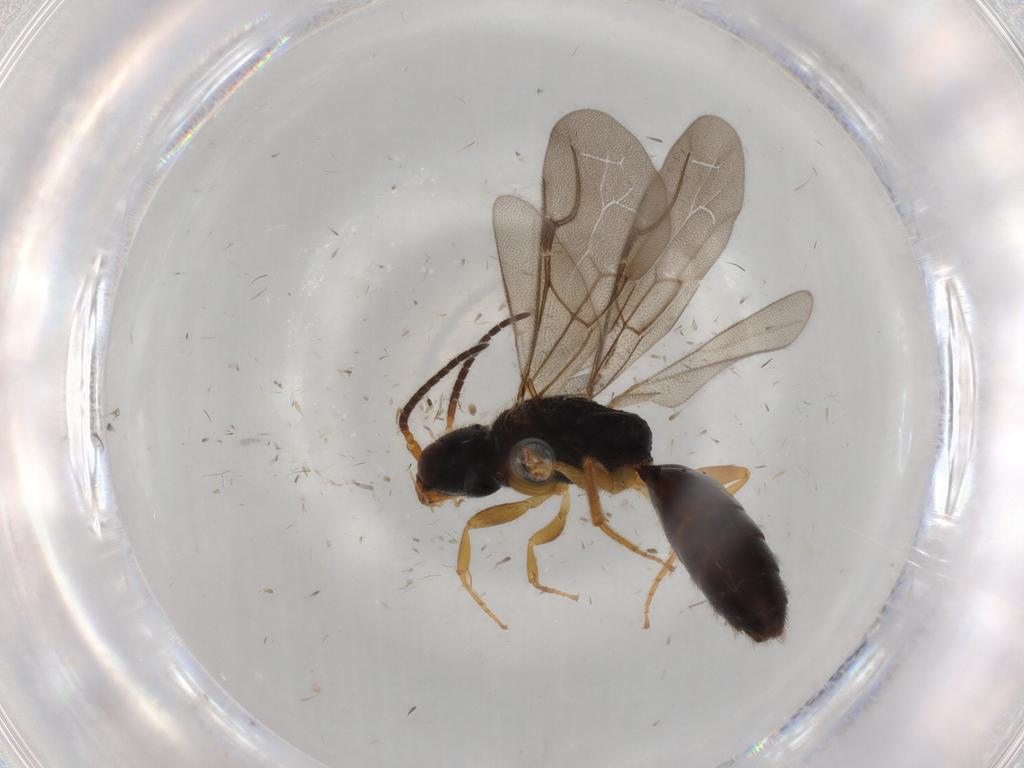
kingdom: Animalia
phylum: Arthropoda
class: Insecta
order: Hymenoptera
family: Bethylidae
